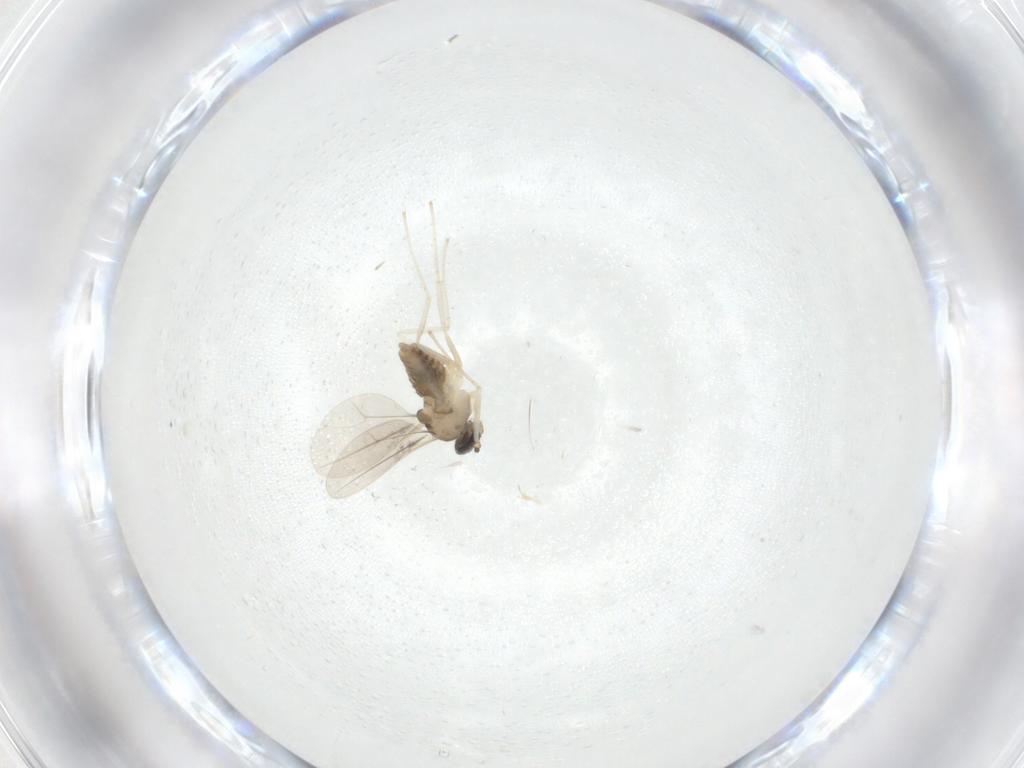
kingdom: Animalia
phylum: Arthropoda
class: Insecta
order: Diptera
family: Cecidomyiidae
